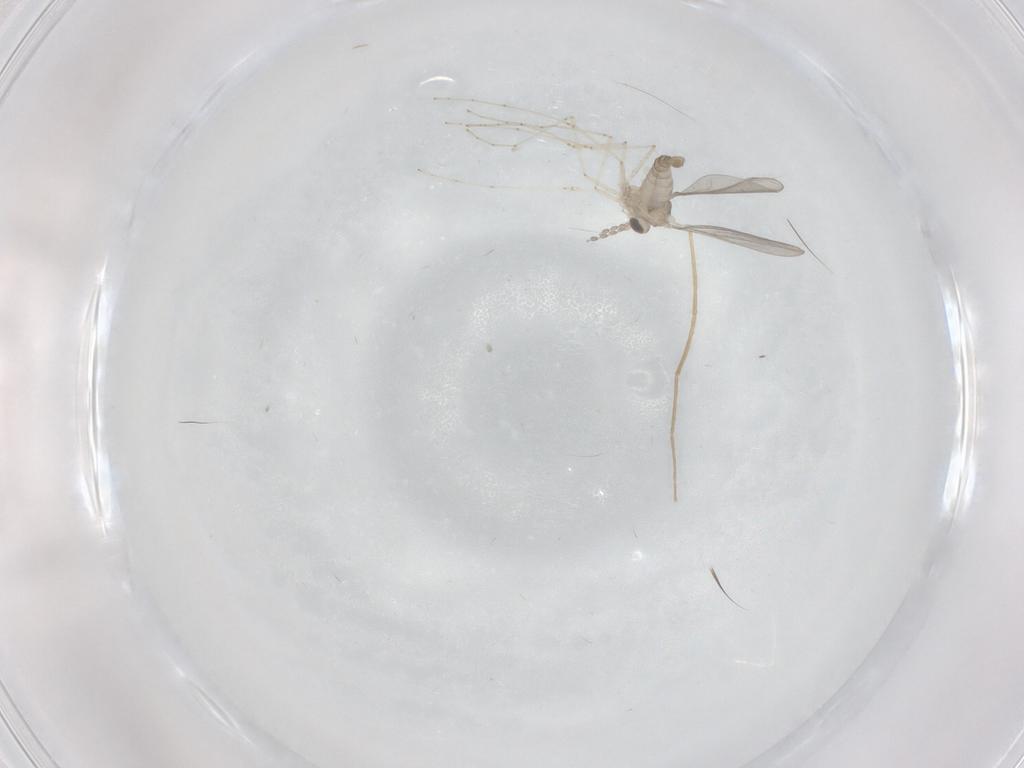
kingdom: Animalia
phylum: Arthropoda
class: Insecta
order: Diptera
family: Chironomidae
